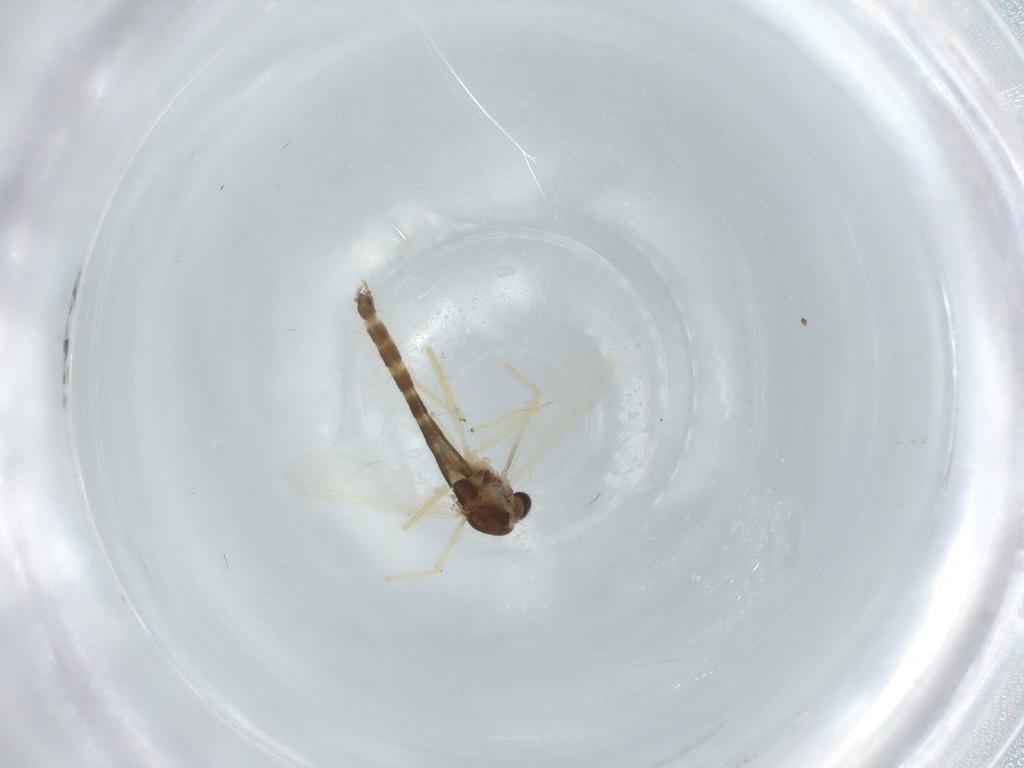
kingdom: Animalia
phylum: Arthropoda
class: Insecta
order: Diptera
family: Chironomidae
